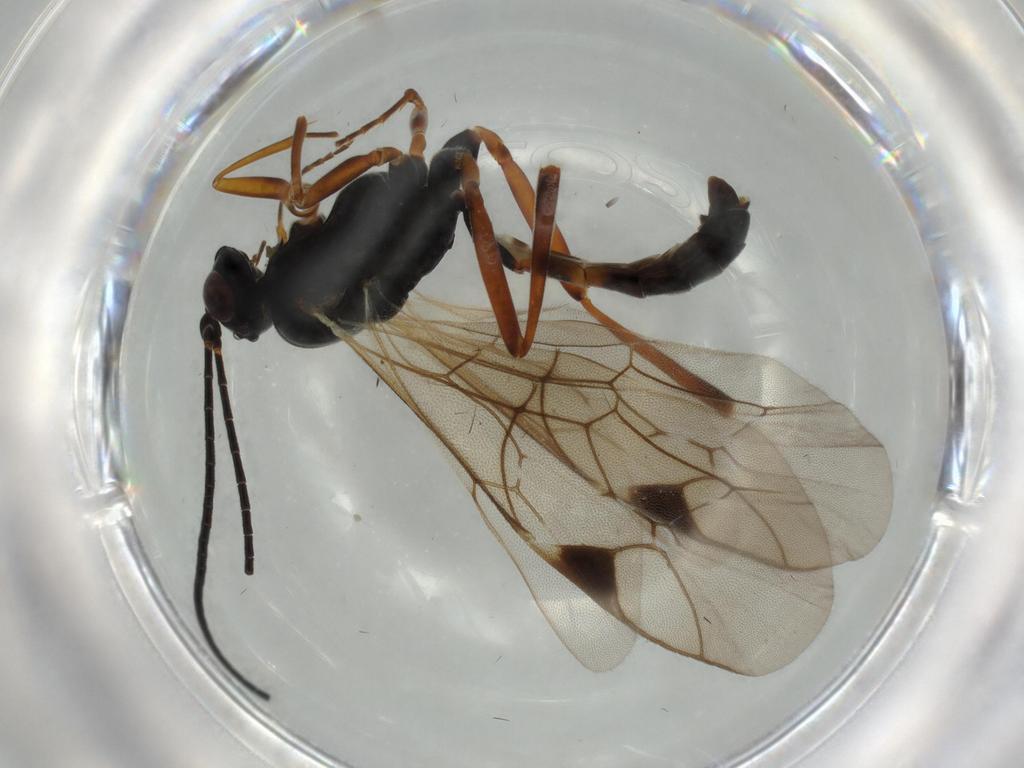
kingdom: Animalia
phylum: Arthropoda
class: Insecta
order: Hymenoptera
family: Ichneumonidae
